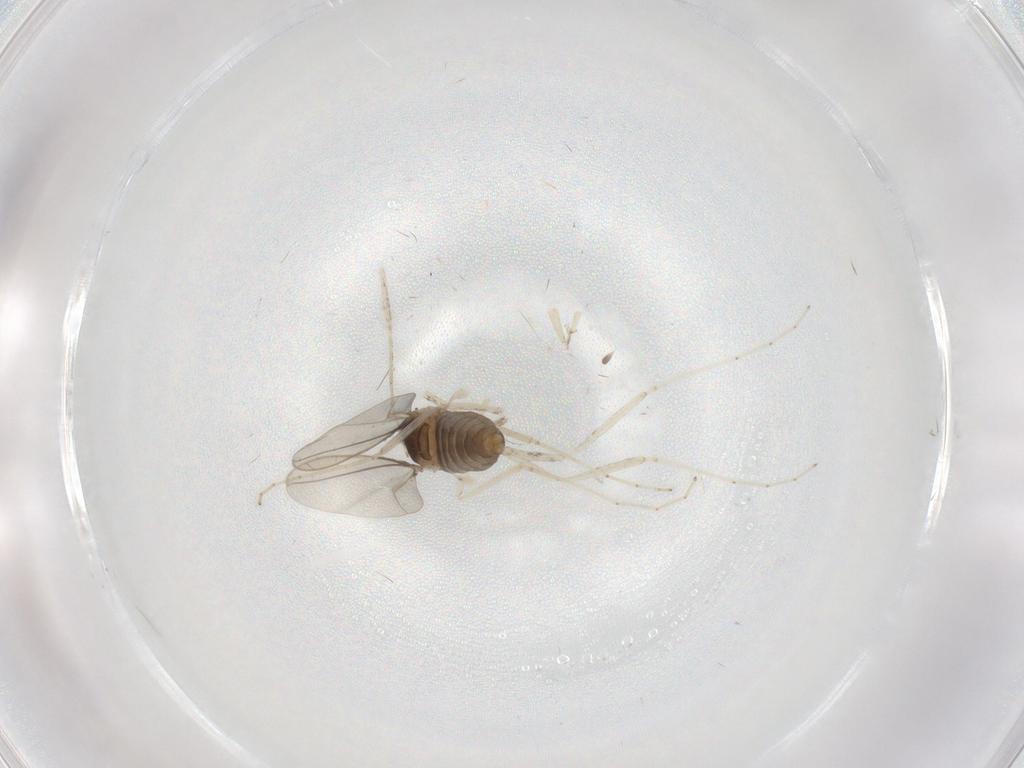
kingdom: Animalia
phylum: Arthropoda
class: Insecta
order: Diptera
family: Cecidomyiidae
